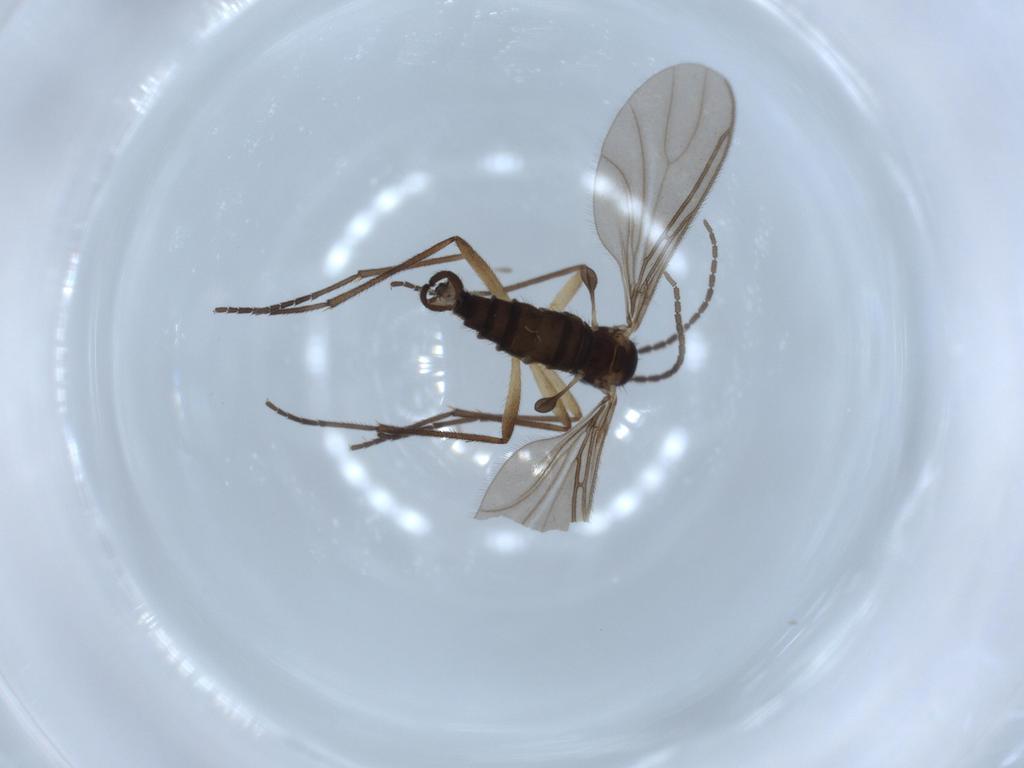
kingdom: Animalia
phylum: Arthropoda
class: Insecta
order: Diptera
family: Sciaridae
